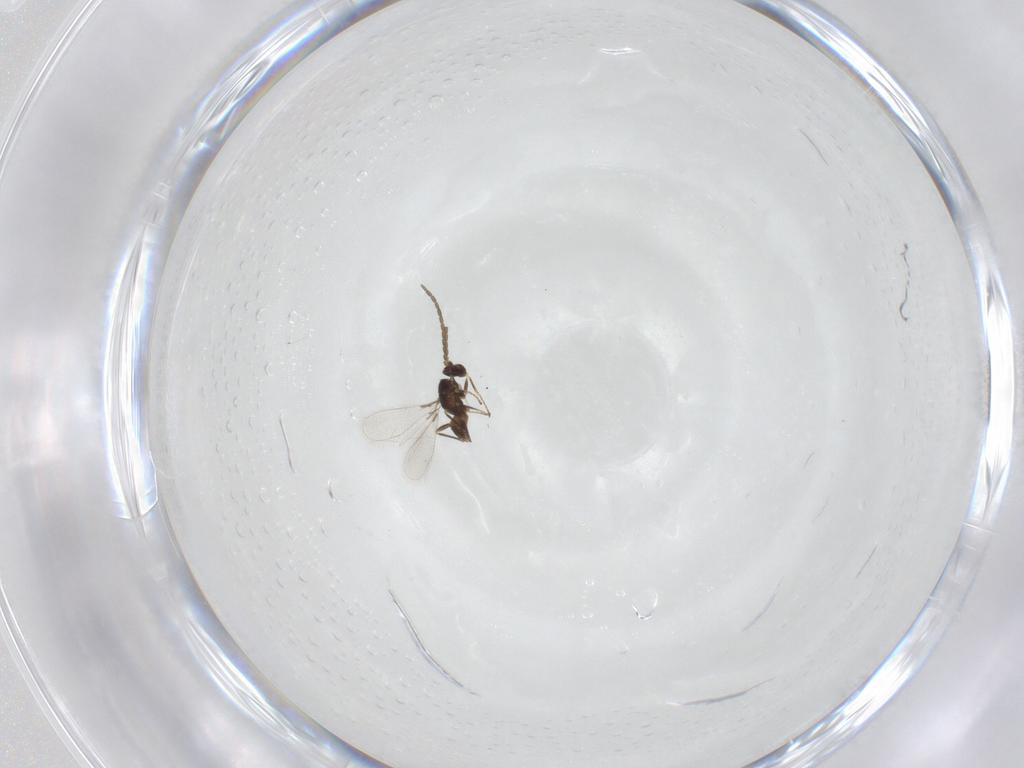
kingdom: Animalia
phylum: Arthropoda
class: Insecta
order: Hymenoptera
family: Mymaridae
